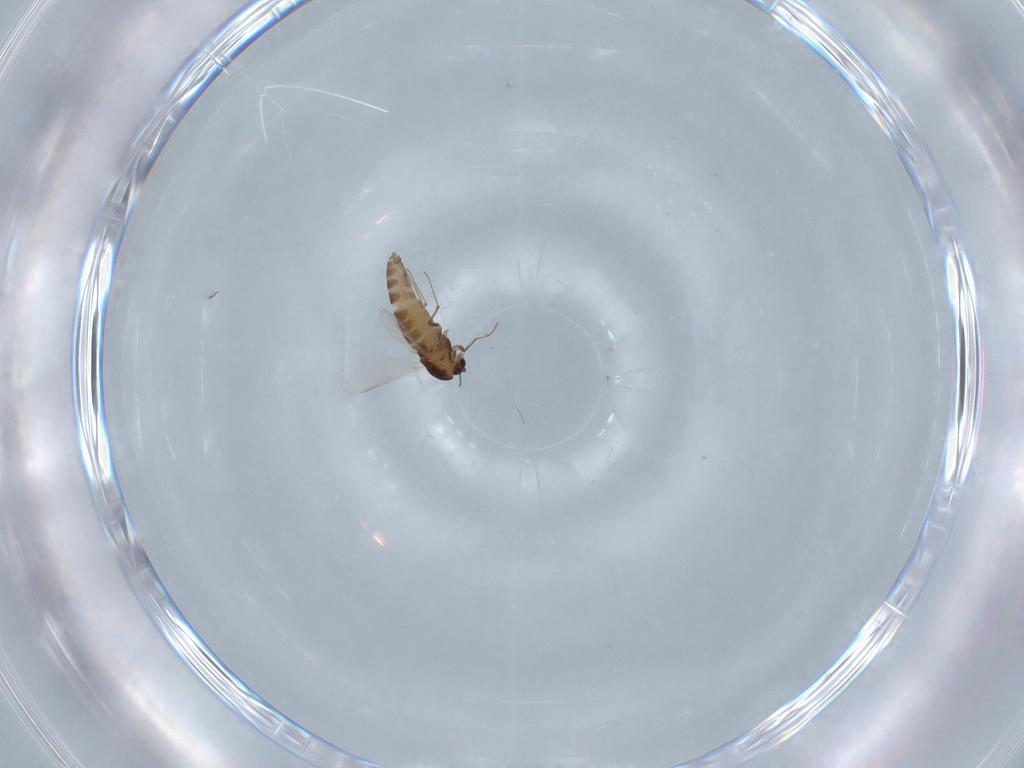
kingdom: Animalia
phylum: Arthropoda
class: Insecta
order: Diptera
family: Chironomidae
